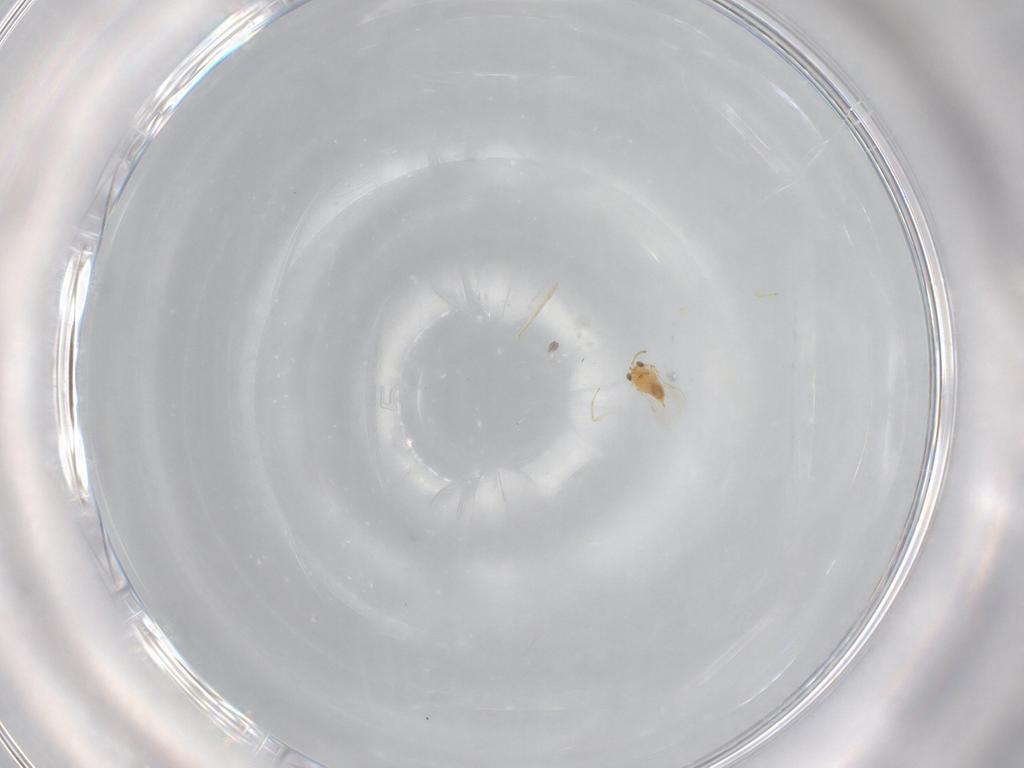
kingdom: Animalia
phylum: Arthropoda
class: Insecta
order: Hymenoptera
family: Aphelinidae
